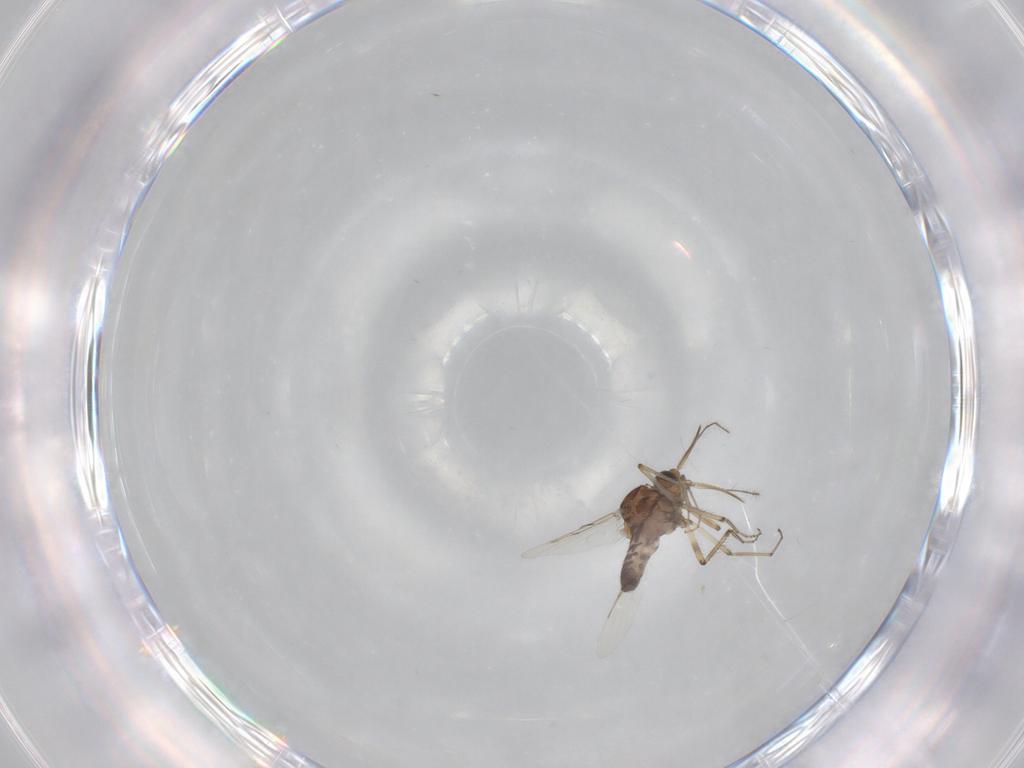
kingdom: Animalia
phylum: Arthropoda
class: Insecta
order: Diptera
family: Ceratopogonidae
